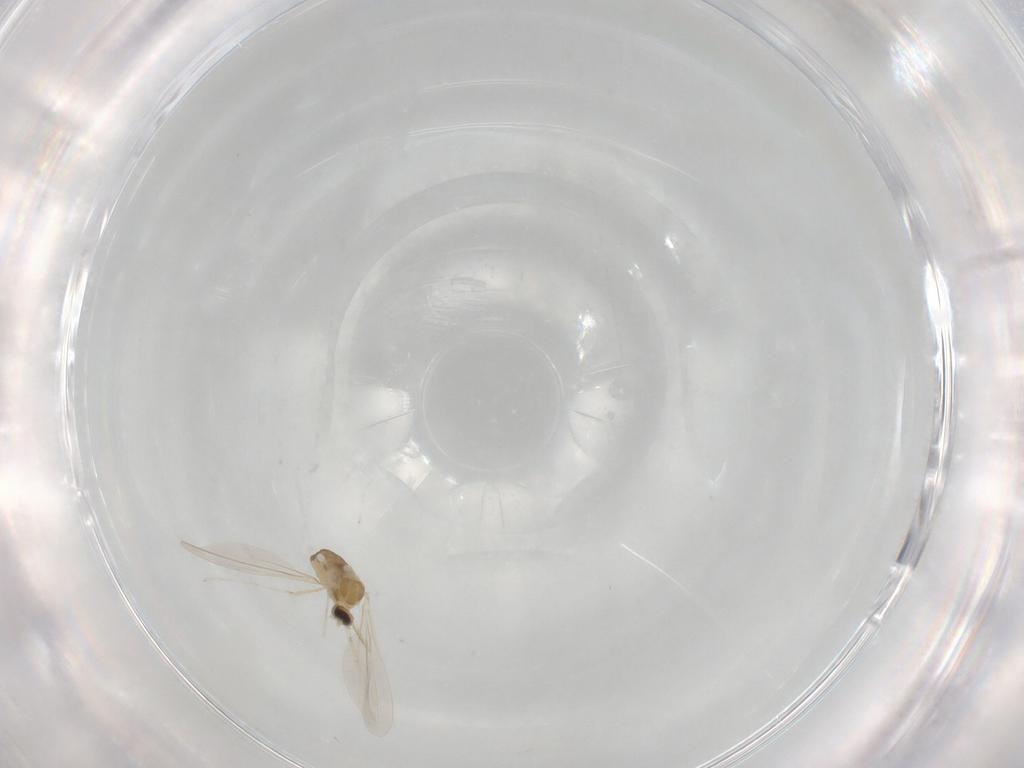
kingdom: Animalia
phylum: Arthropoda
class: Insecta
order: Diptera
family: Cecidomyiidae
